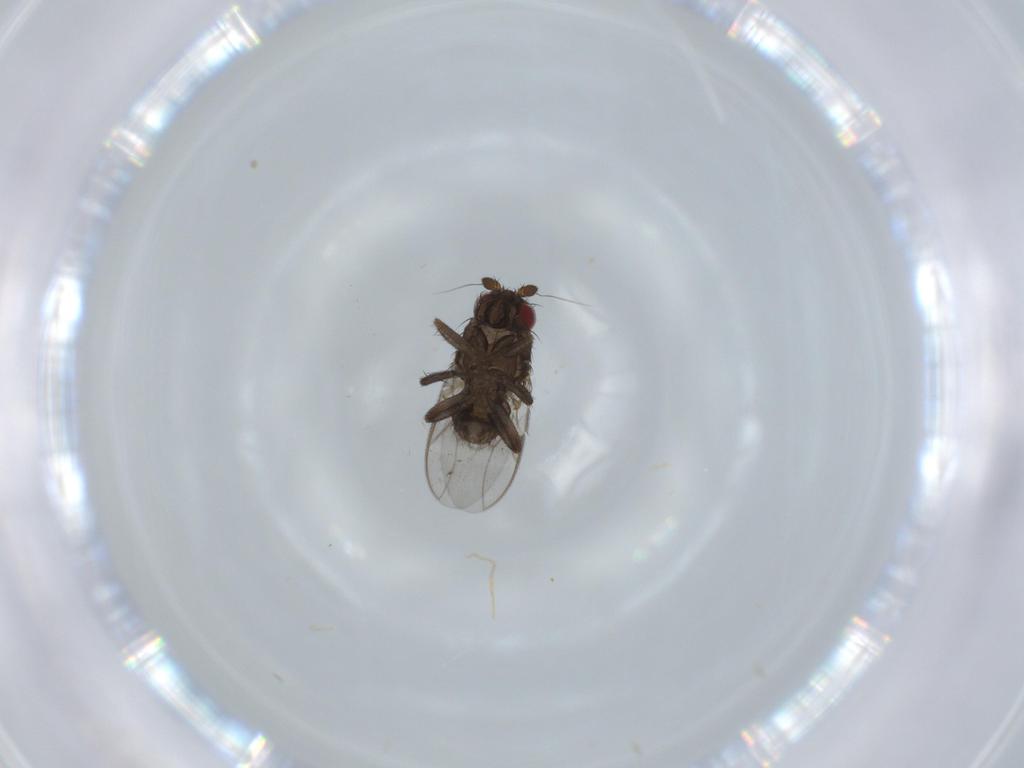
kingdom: Animalia
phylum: Arthropoda
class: Insecta
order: Diptera
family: Sphaeroceridae
